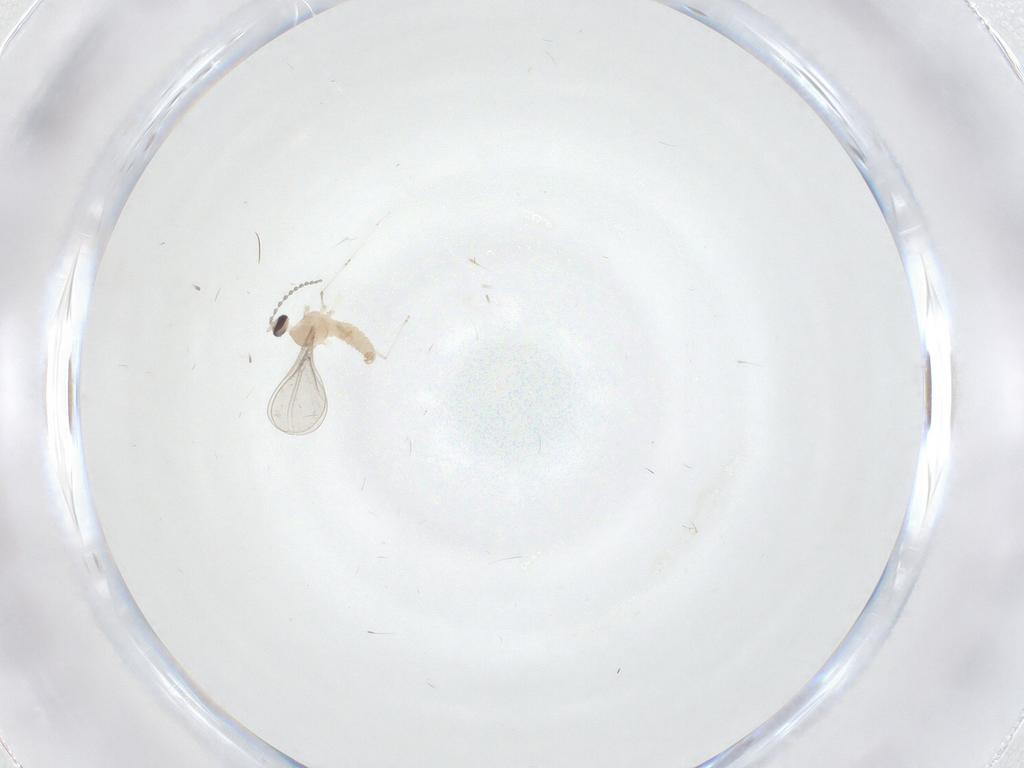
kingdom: Animalia
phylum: Arthropoda
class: Insecta
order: Diptera
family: Cecidomyiidae
